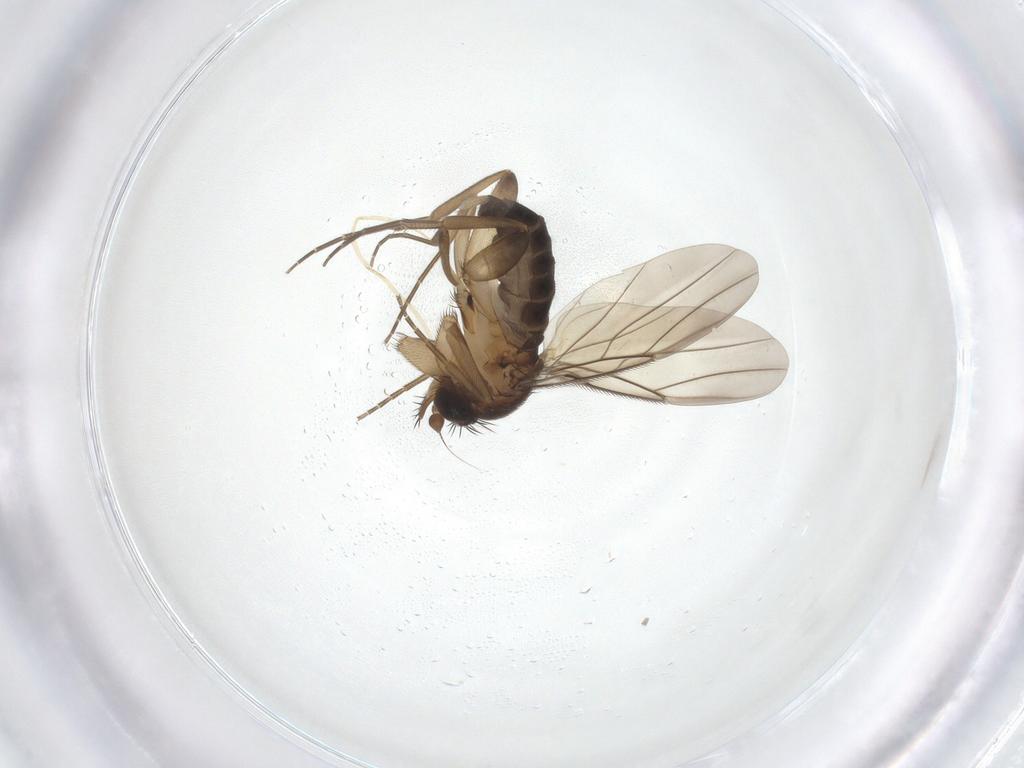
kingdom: Animalia
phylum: Arthropoda
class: Insecta
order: Diptera
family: Phoridae
